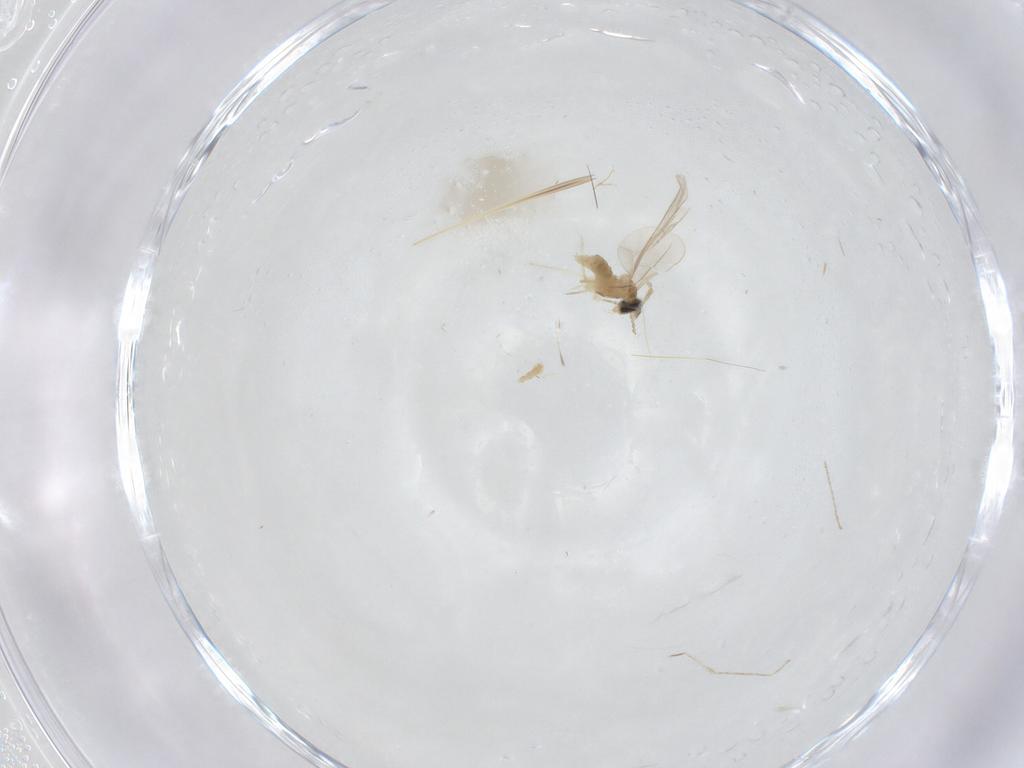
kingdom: Animalia
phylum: Arthropoda
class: Insecta
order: Diptera
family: Cecidomyiidae
